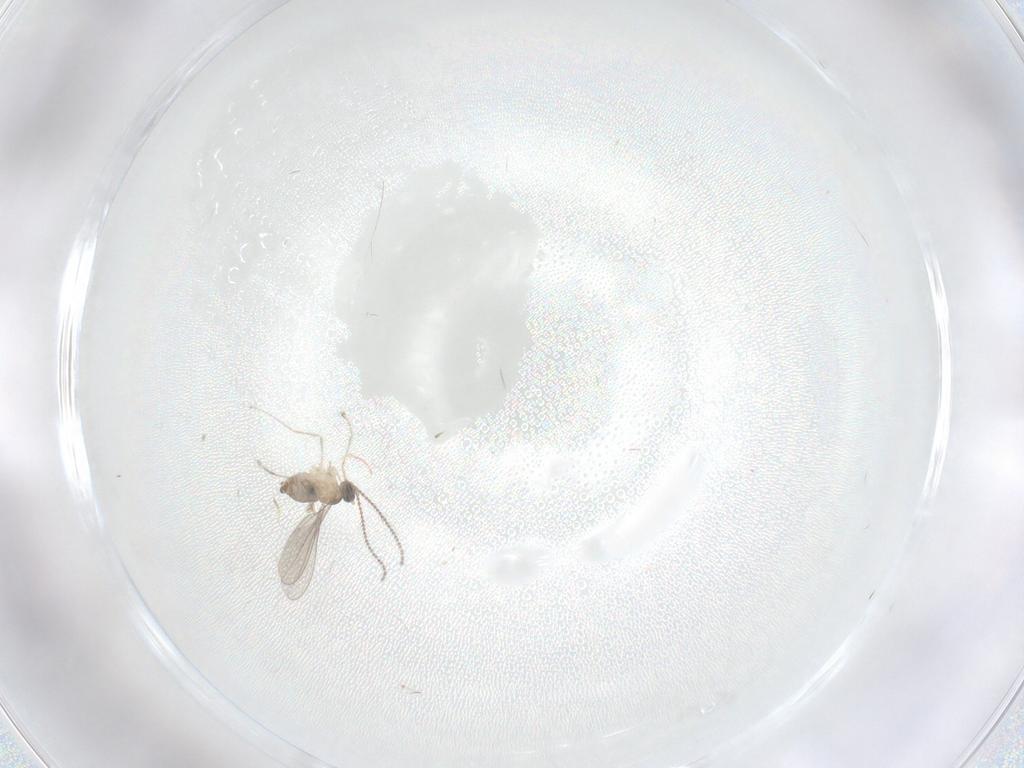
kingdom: Animalia
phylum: Arthropoda
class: Insecta
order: Diptera
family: Cecidomyiidae
